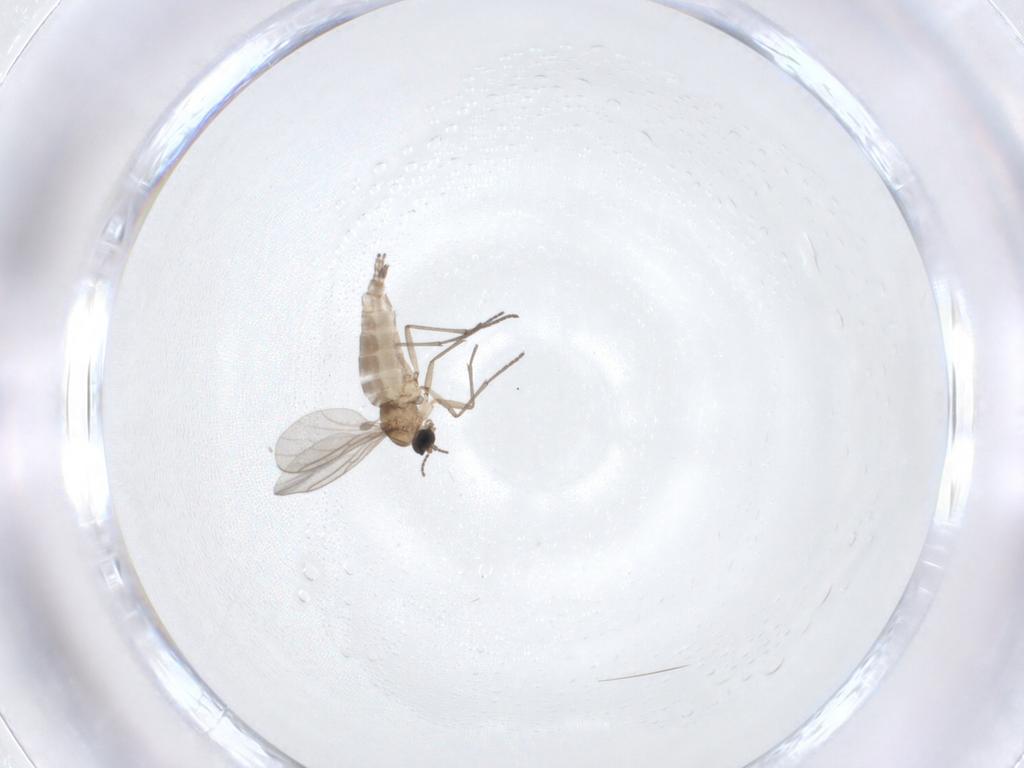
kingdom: Animalia
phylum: Arthropoda
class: Insecta
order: Diptera
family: Sciaridae
